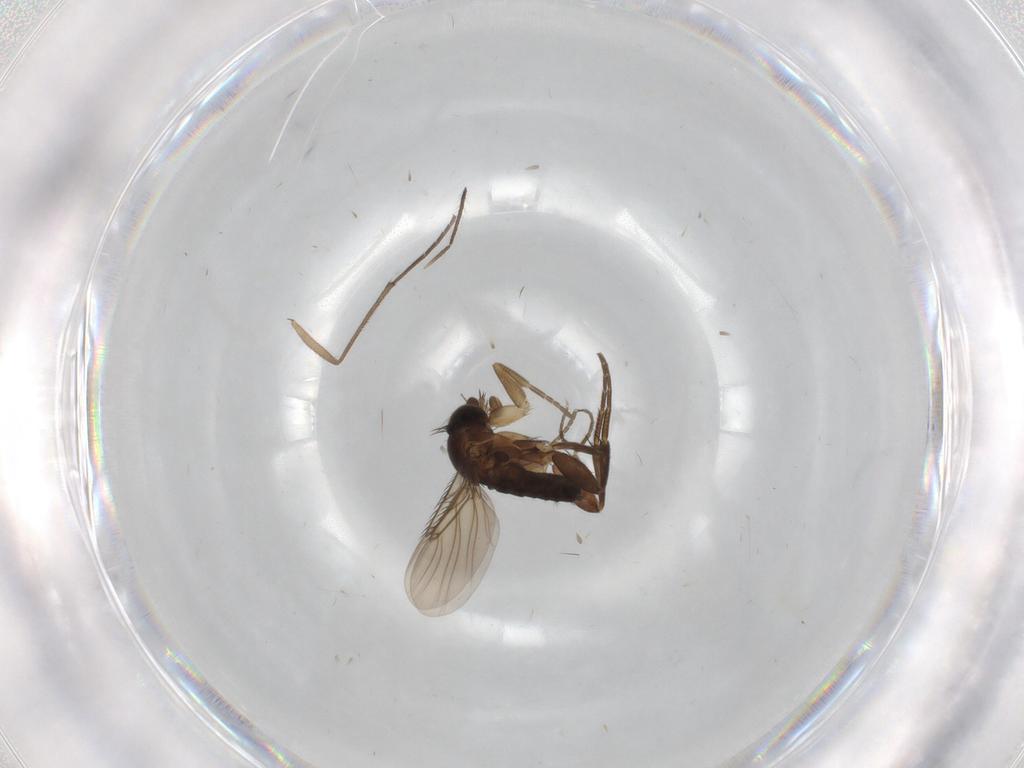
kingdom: Animalia
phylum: Arthropoda
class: Insecta
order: Diptera
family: Phoridae
